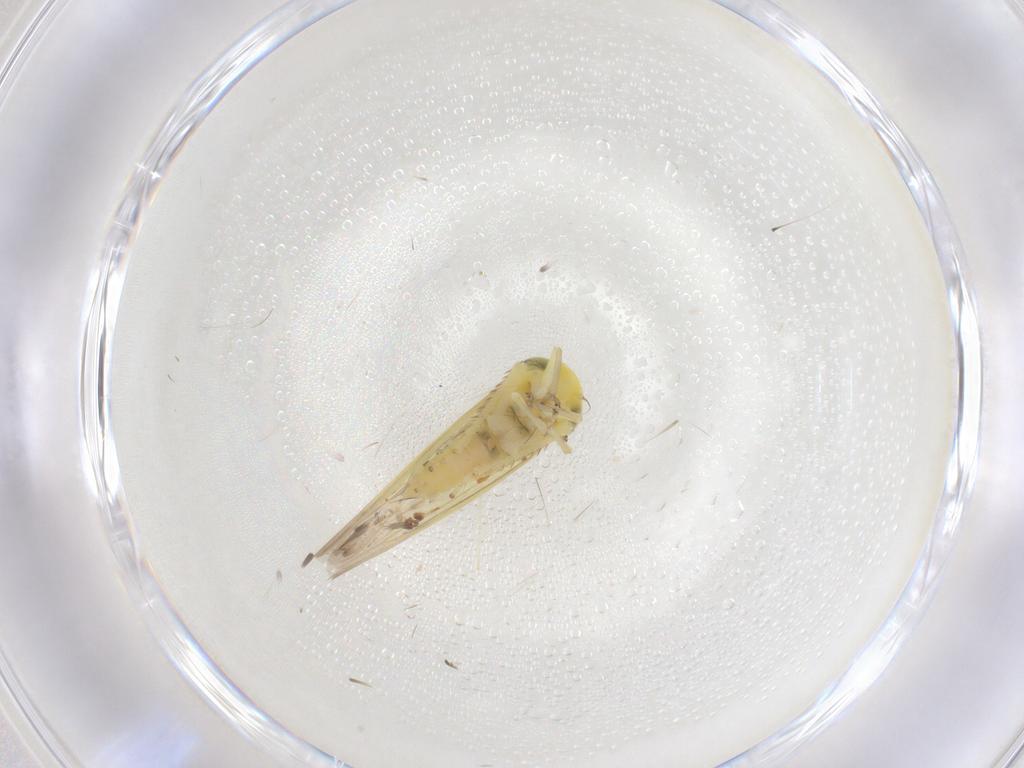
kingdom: Animalia
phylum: Arthropoda
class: Insecta
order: Hemiptera
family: Cicadellidae
